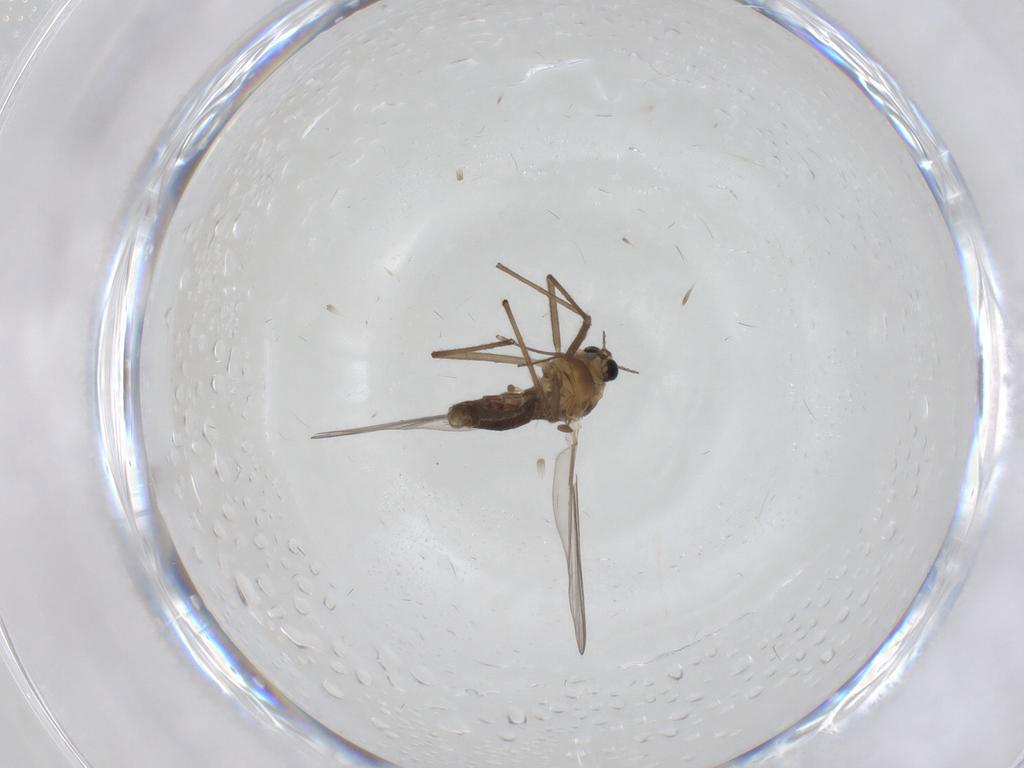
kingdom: Animalia
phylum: Arthropoda
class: Insecta
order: Diptera
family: Chironomidae
